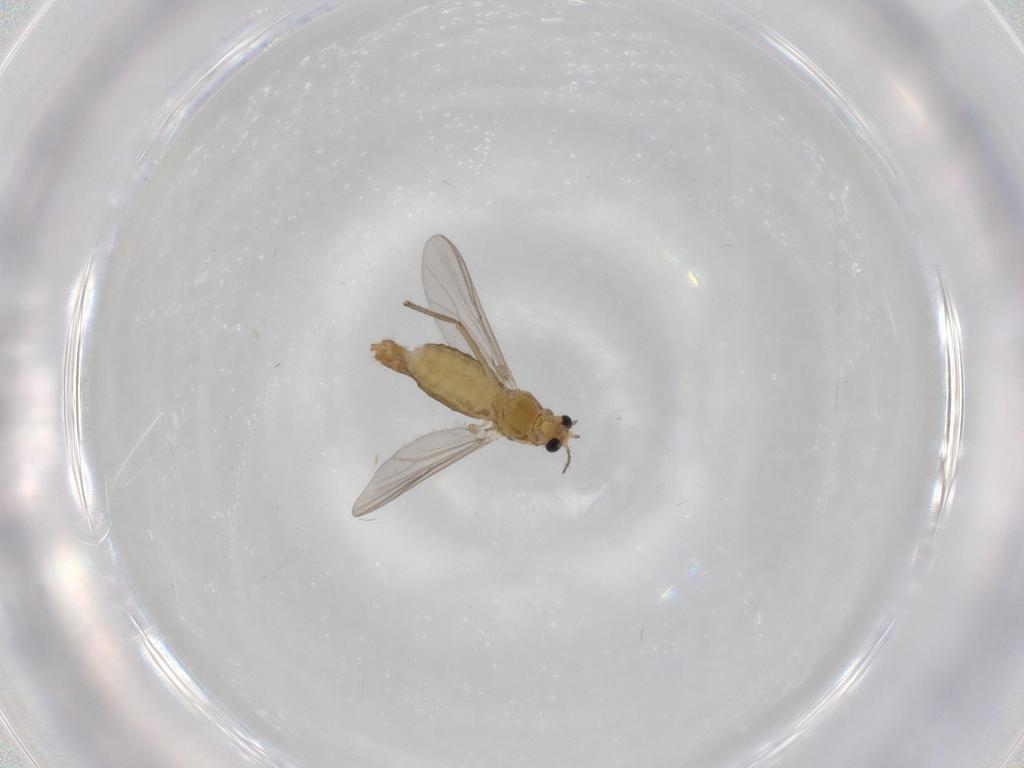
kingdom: Animalia
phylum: Arthropoda
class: Insecta
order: Diptera
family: Chironomidae
